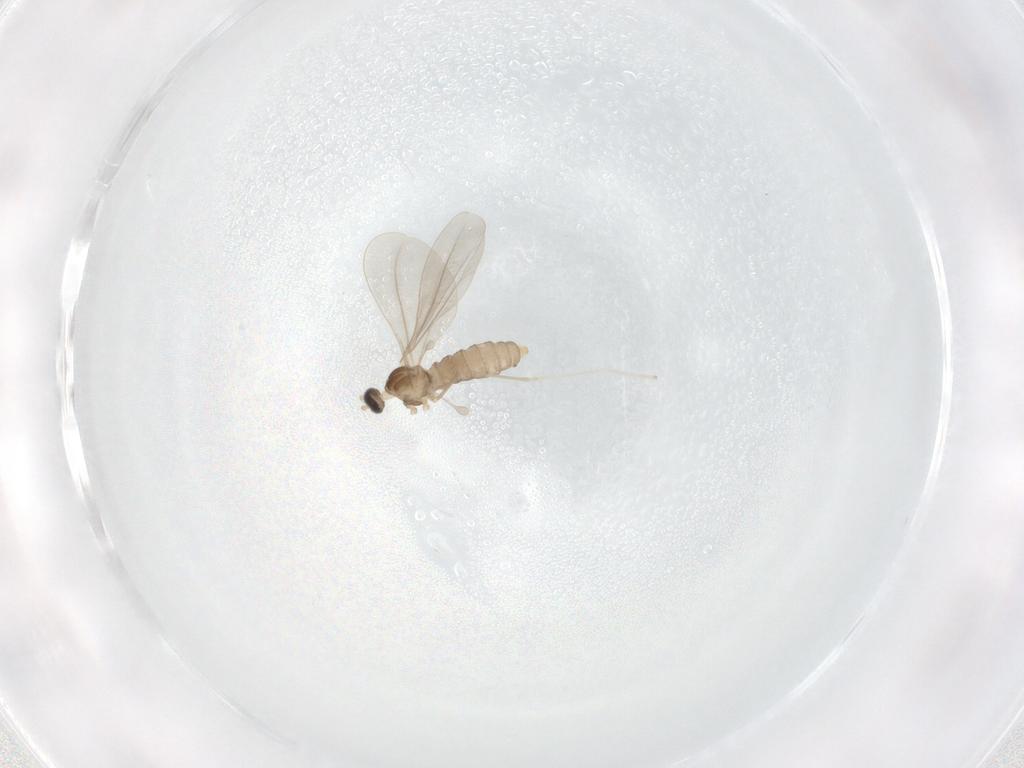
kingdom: Animalia
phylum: Arthropoda
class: Insecta
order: Diptera
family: Cecidomyiidae
